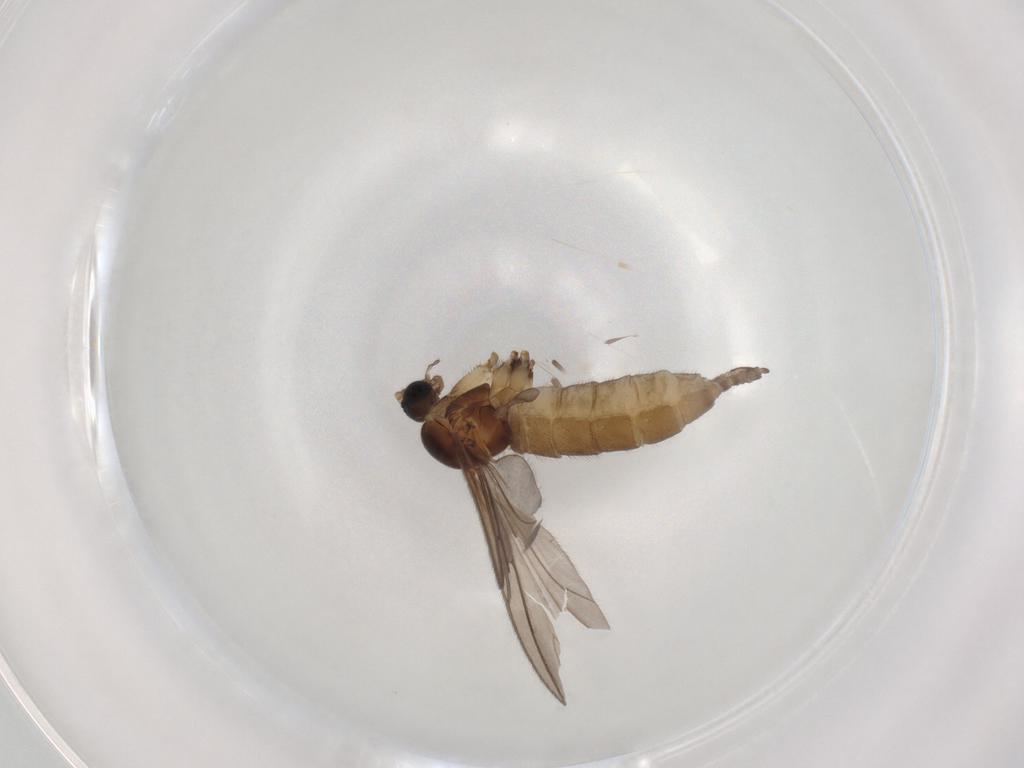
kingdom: Animalia
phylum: Arthropoda
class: Insecta
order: Diptera
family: Sciaridae
